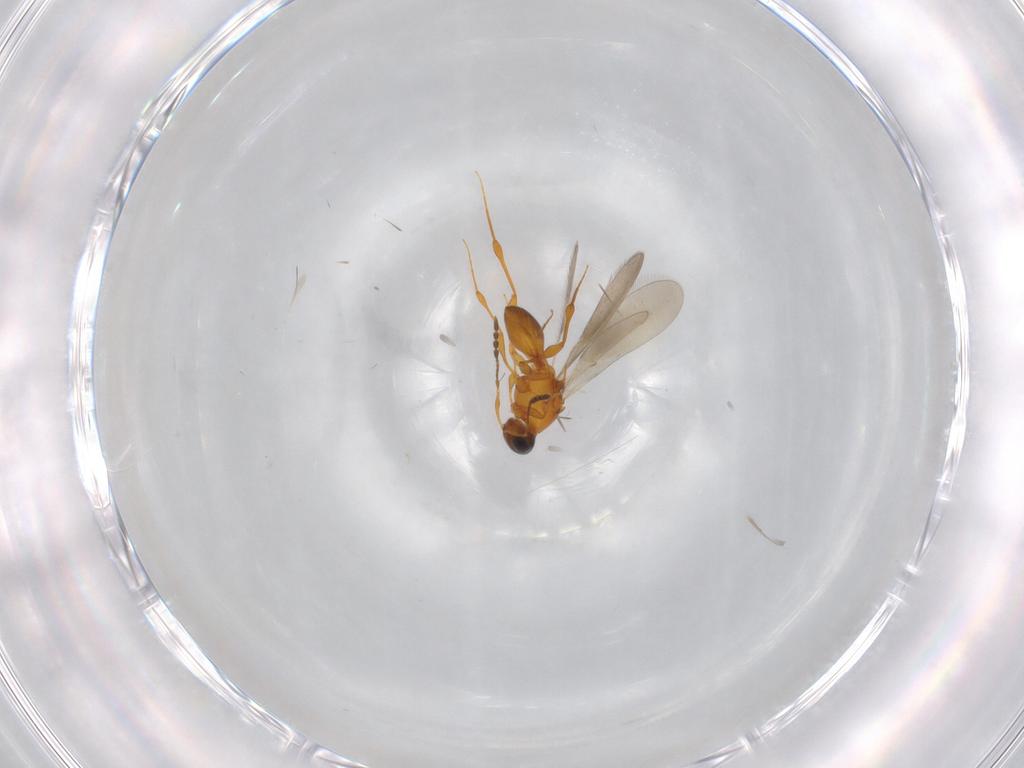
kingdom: Animalia
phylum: Arthropoda
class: Insecta
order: Hymenoptera
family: Platygastridae
